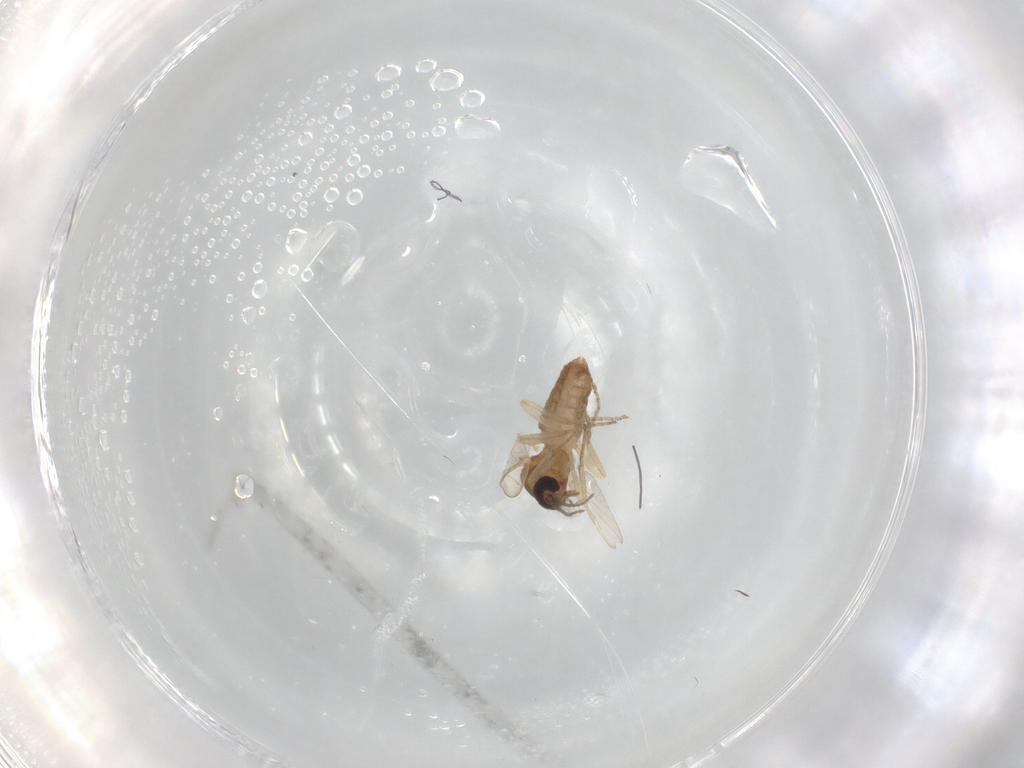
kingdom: Animalia
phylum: Arthropoda
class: Insecta
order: Diptera
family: Ceratopogonidae
